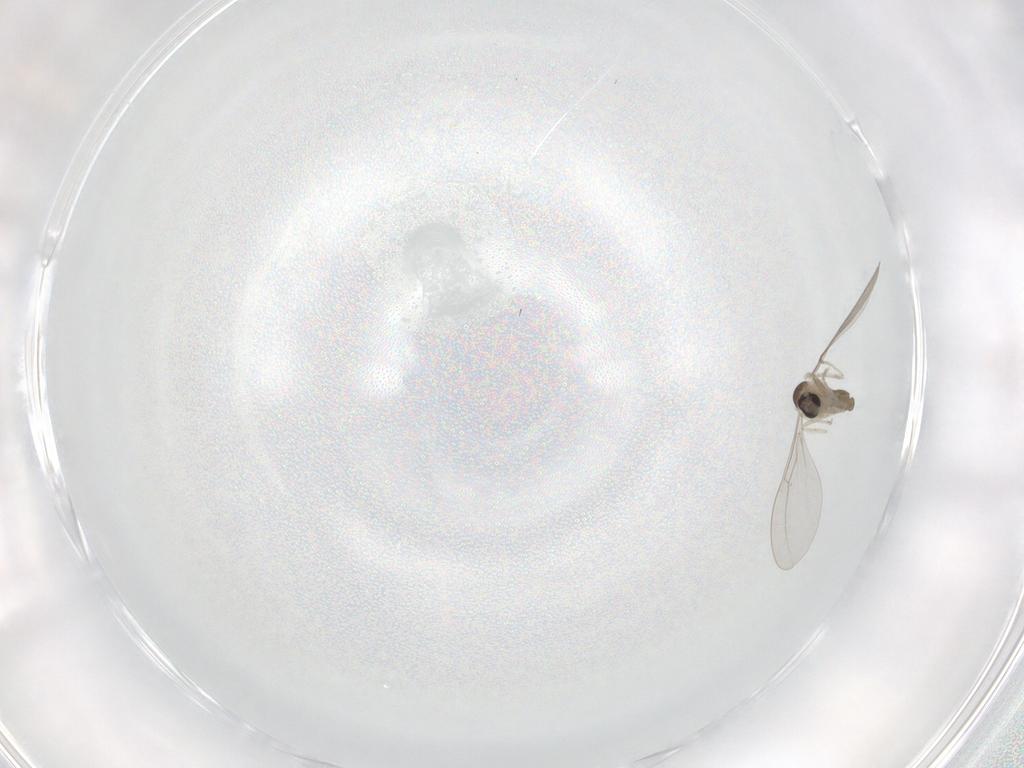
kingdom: Animalia
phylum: Arthropoda
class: Insecta
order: Diptera
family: Cecidomyiidae
